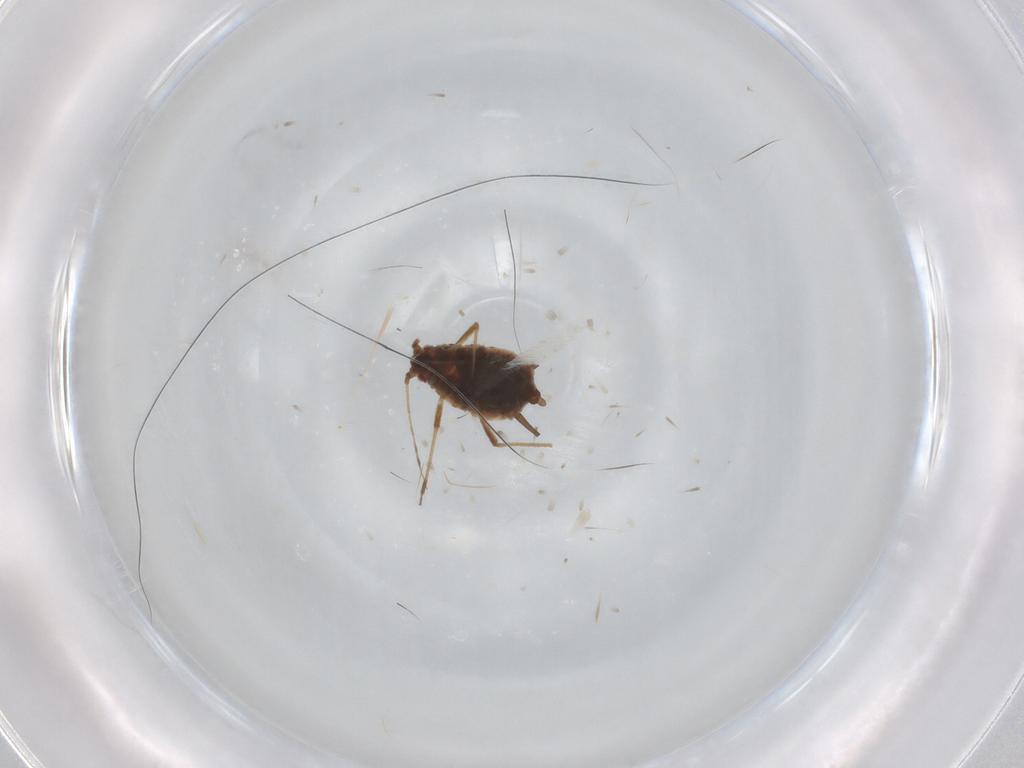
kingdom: Animalia
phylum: Arthropoda
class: Insecta
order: Hemiptera
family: Aphididae
